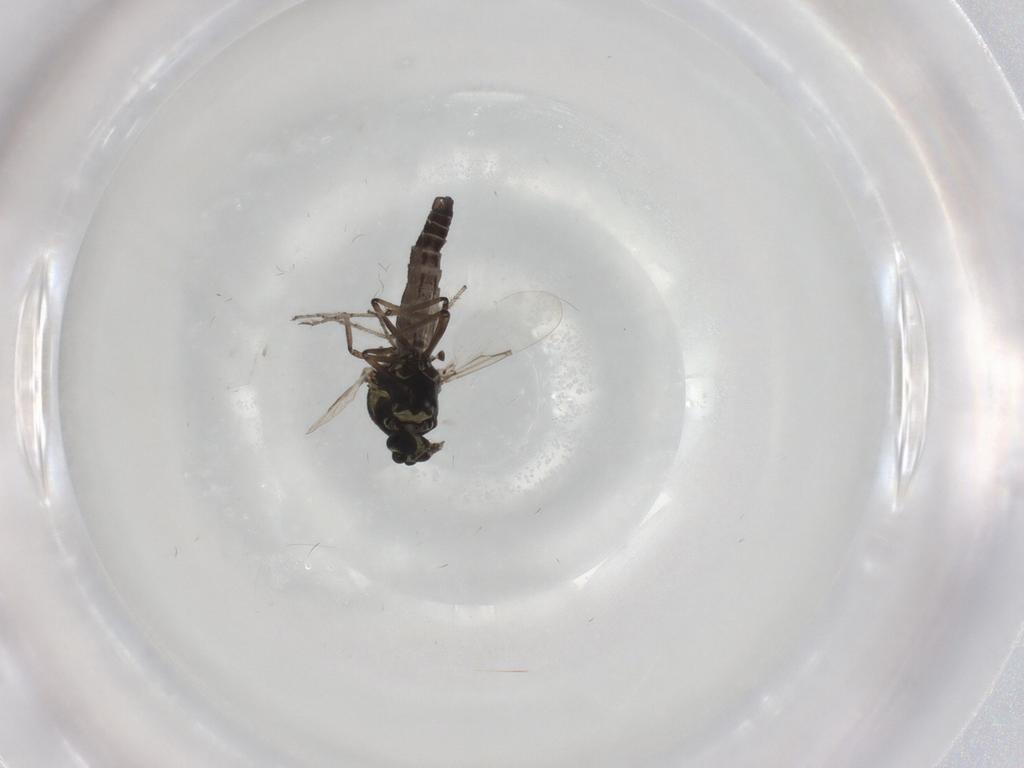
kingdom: Animalia
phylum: Arthropoda
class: Insecta
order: Diptera
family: Chironomidae
